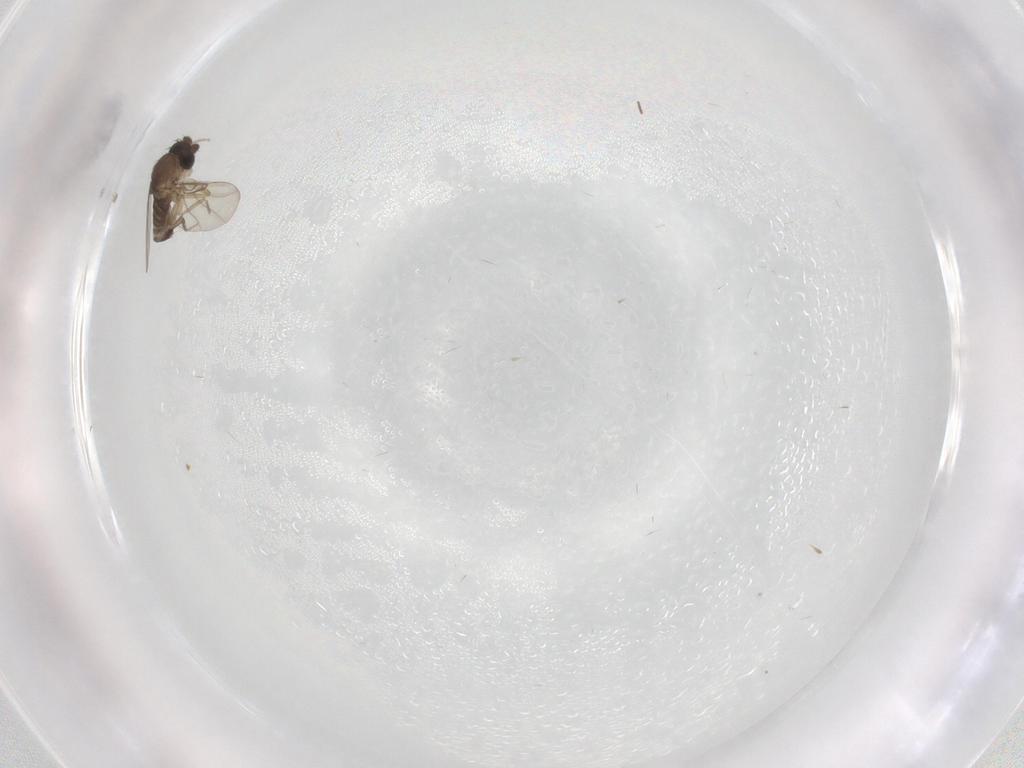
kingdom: Animalia
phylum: Arthropoda
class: Insecta
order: Diptera
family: Phoridae
